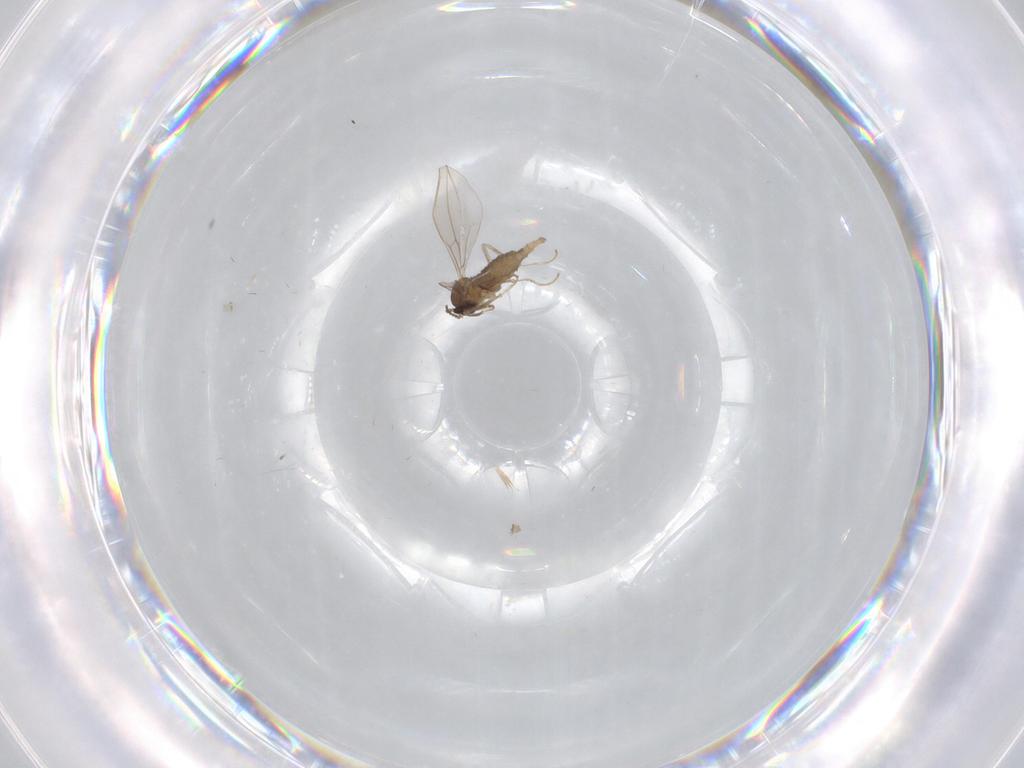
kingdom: Animalia
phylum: Arthropoda
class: Insecta
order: Diptera
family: Cecidomyiidae
